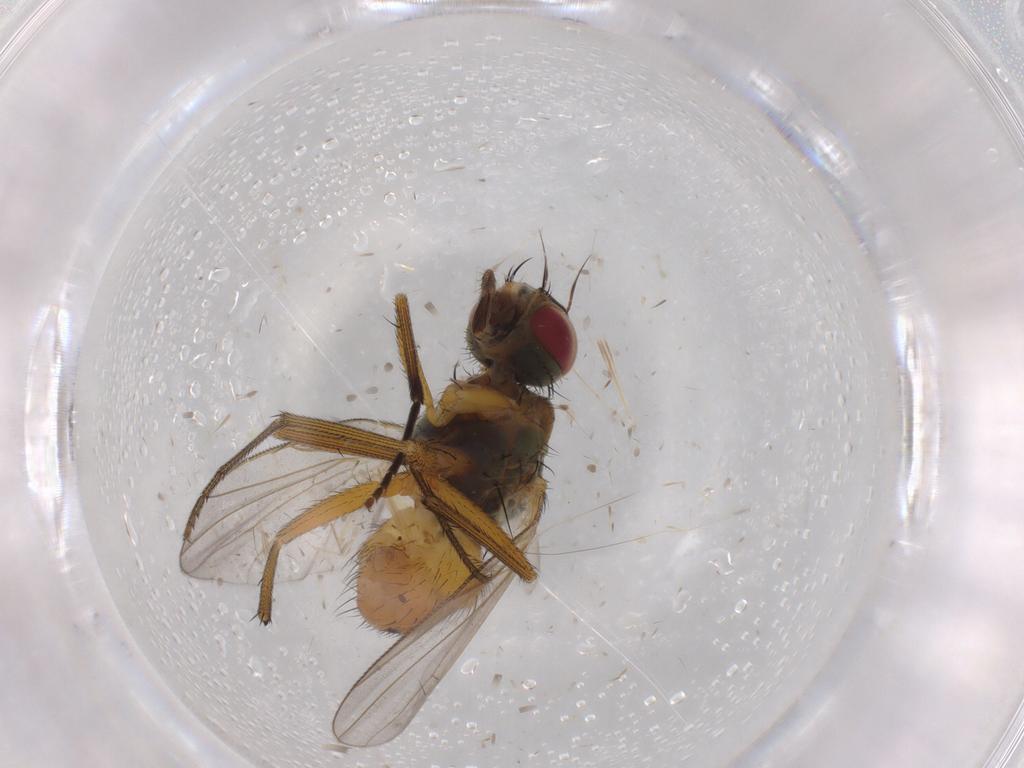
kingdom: Animalia
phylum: Arthropoda
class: Insecta
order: Diptera
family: Muscidae
